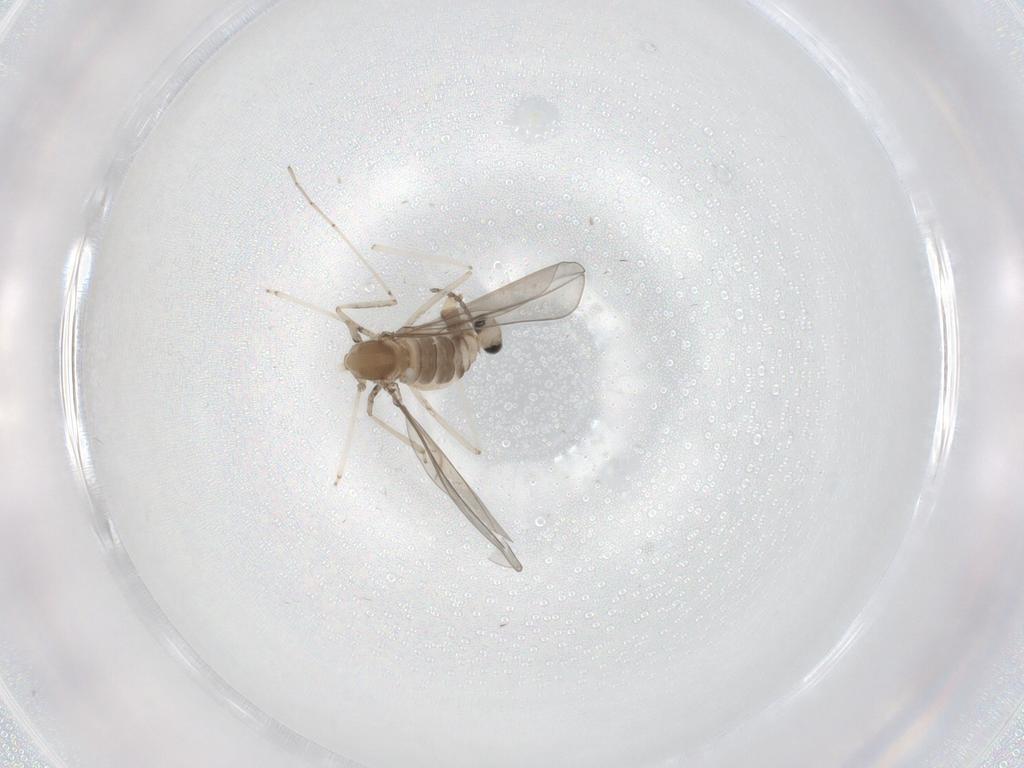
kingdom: Animalia
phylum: Arthropoda
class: Insecta
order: Diptera
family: Cecidomyiidae
